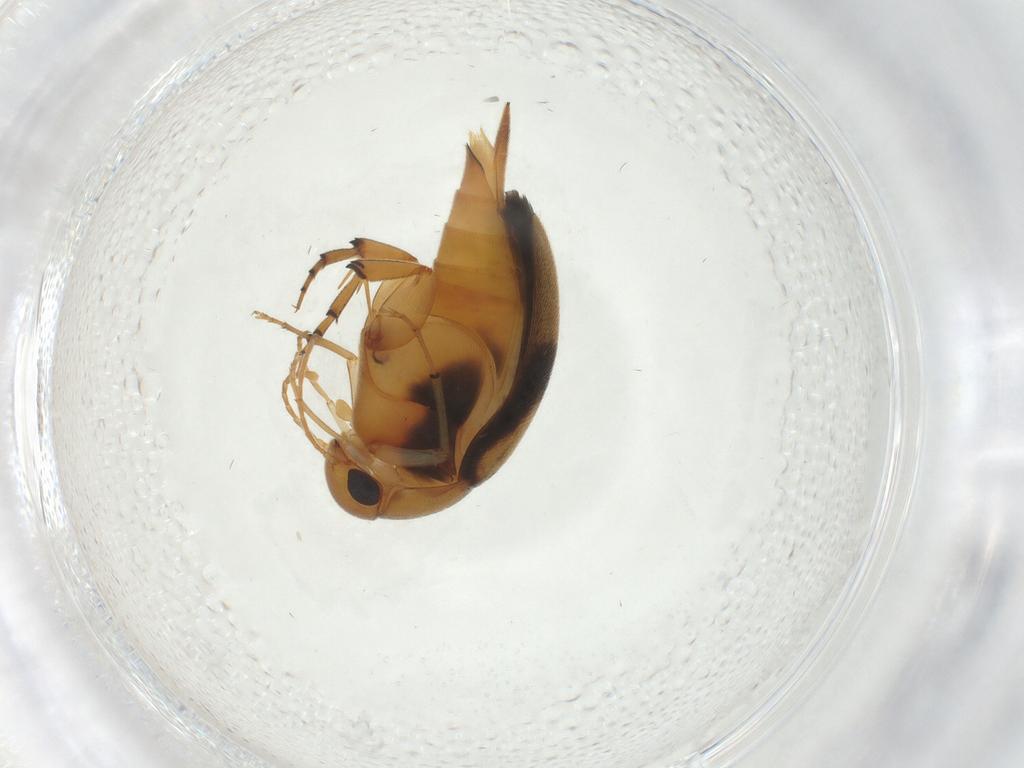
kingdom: Animalia
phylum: Arthropoda
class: Insecta
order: Coleoptera
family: Mordellidae
